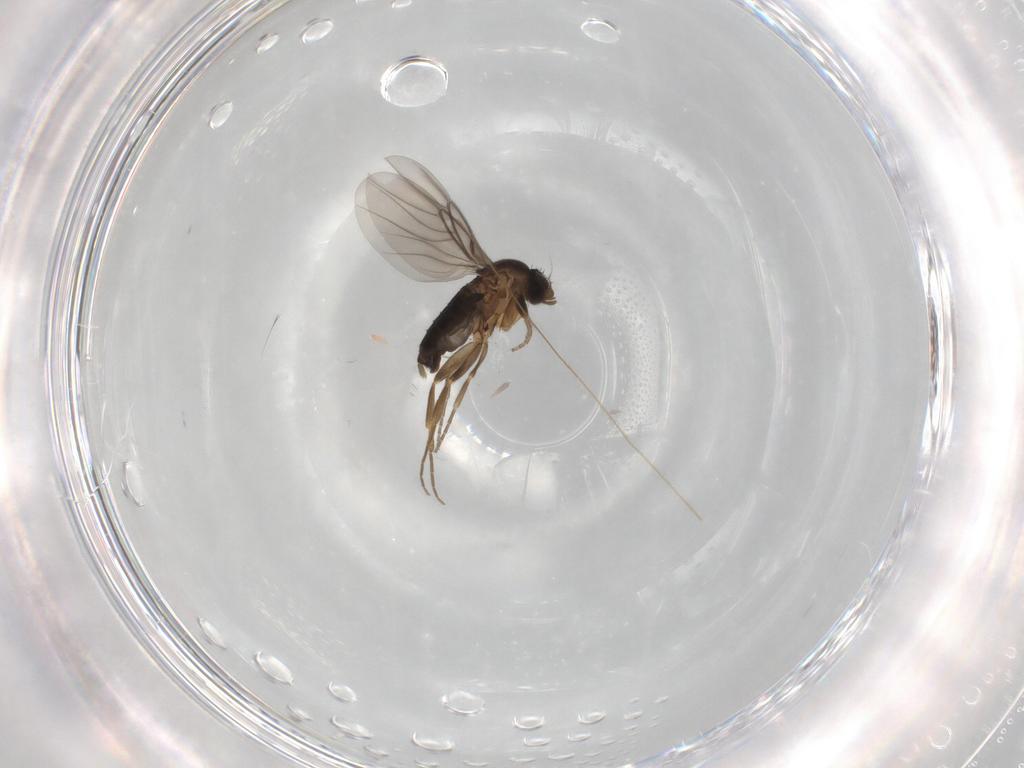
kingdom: Animalia
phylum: Arthropoda
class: Insecta
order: Diptera
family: Phoridae
